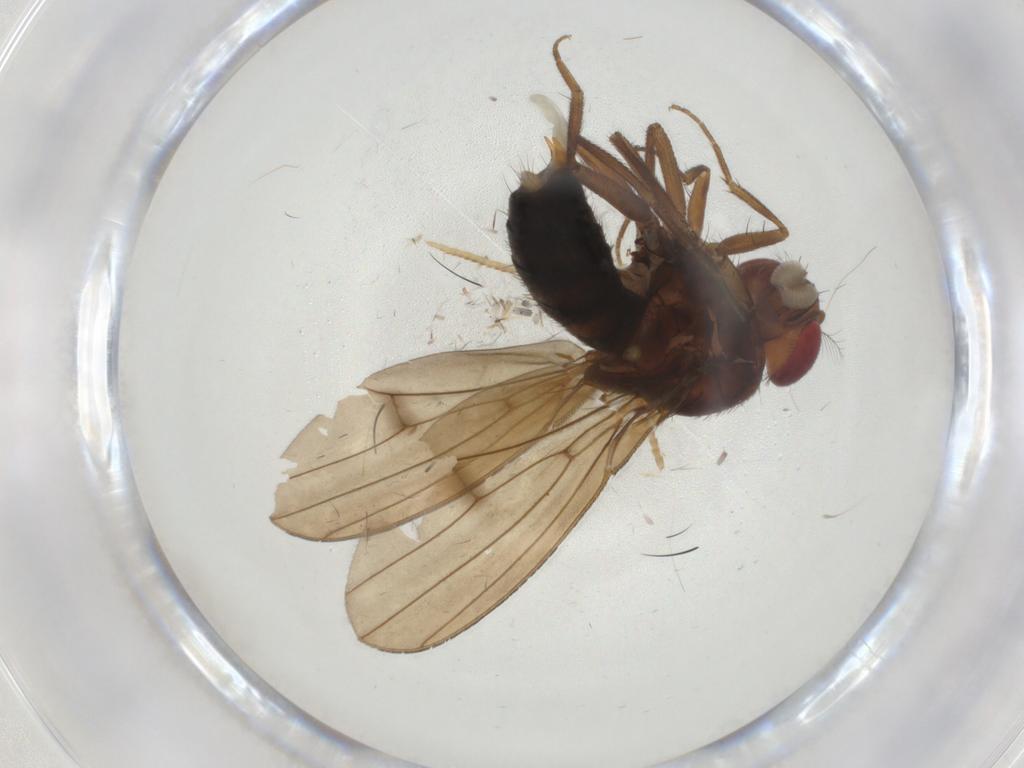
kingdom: Animalia
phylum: Arthropoda
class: Insecta
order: Diptera
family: Drosophilidae
